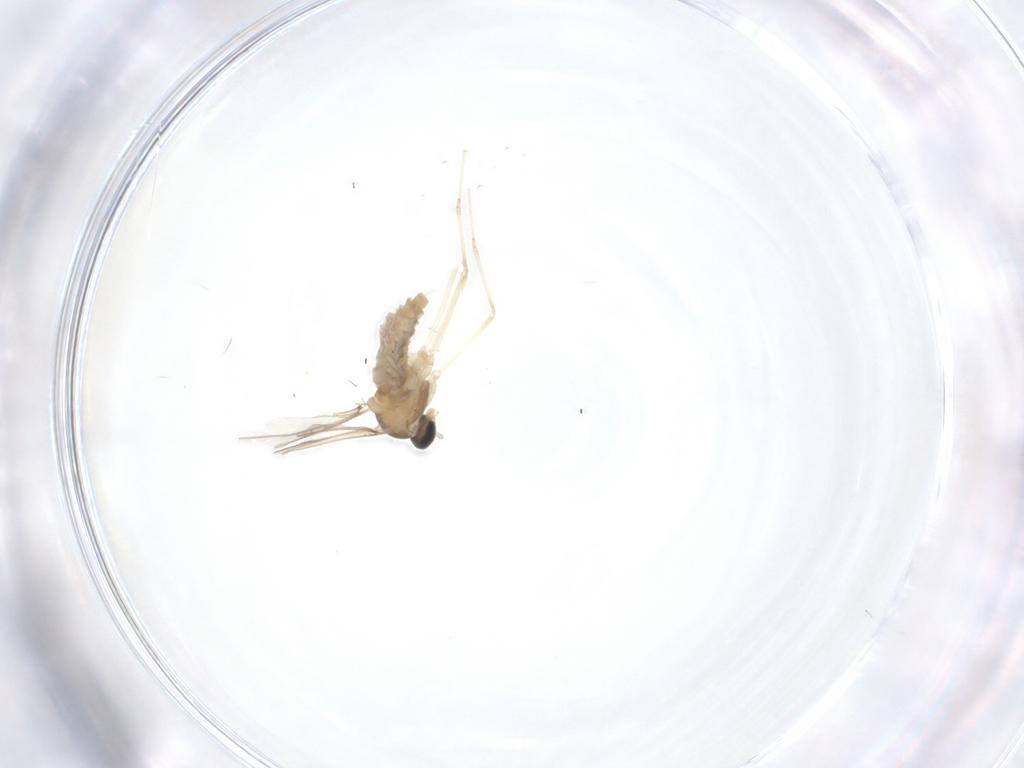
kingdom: Animalia
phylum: Arthropoda
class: Insecta
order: Diptera
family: Cecidomyiidae
